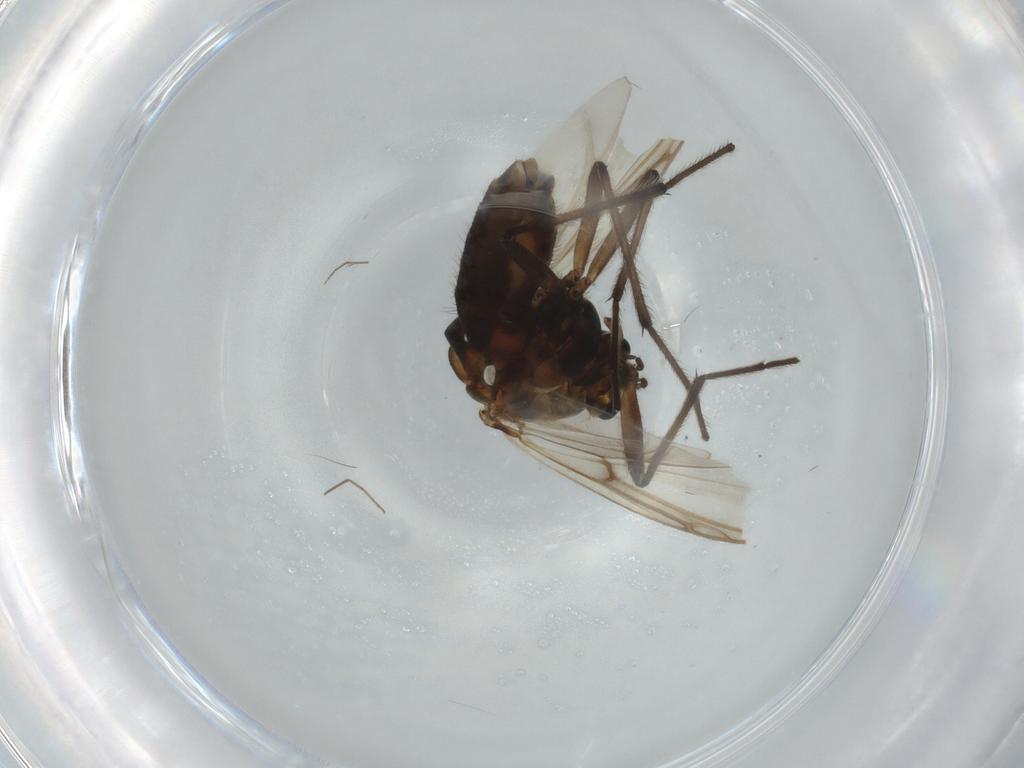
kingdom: Animalia
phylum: Arthropoda
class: Insecta
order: Diptera
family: Chironomidae
